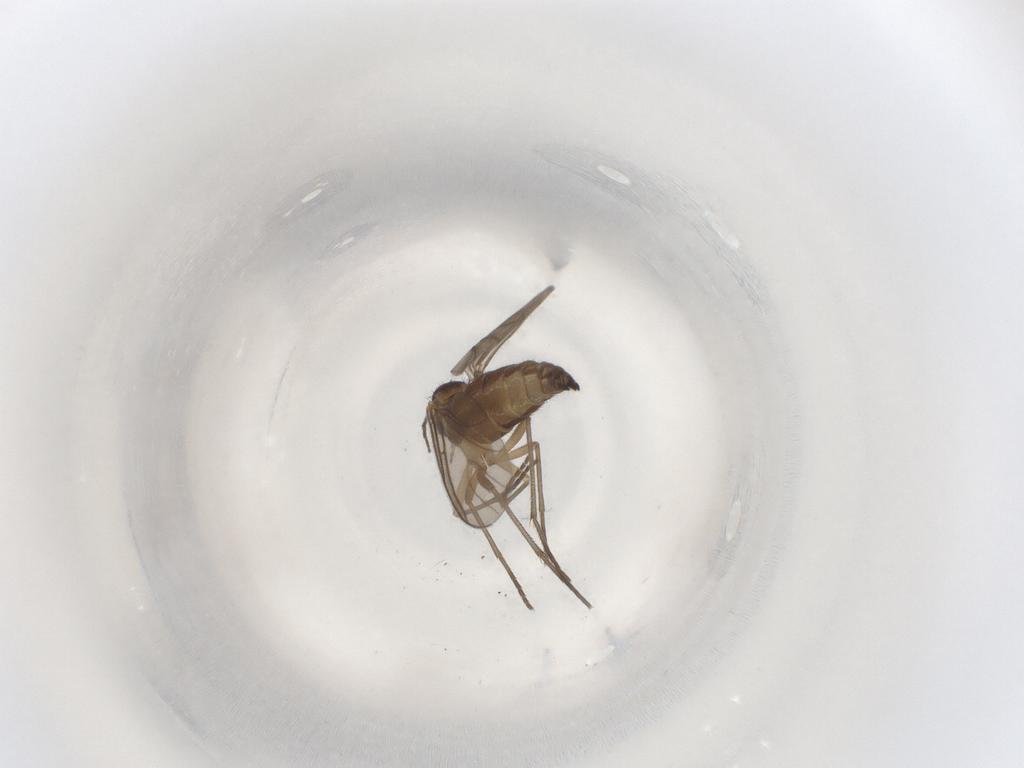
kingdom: Animalia
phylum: Arthropoda
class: Insecta
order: Diptera
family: Sciaridae
